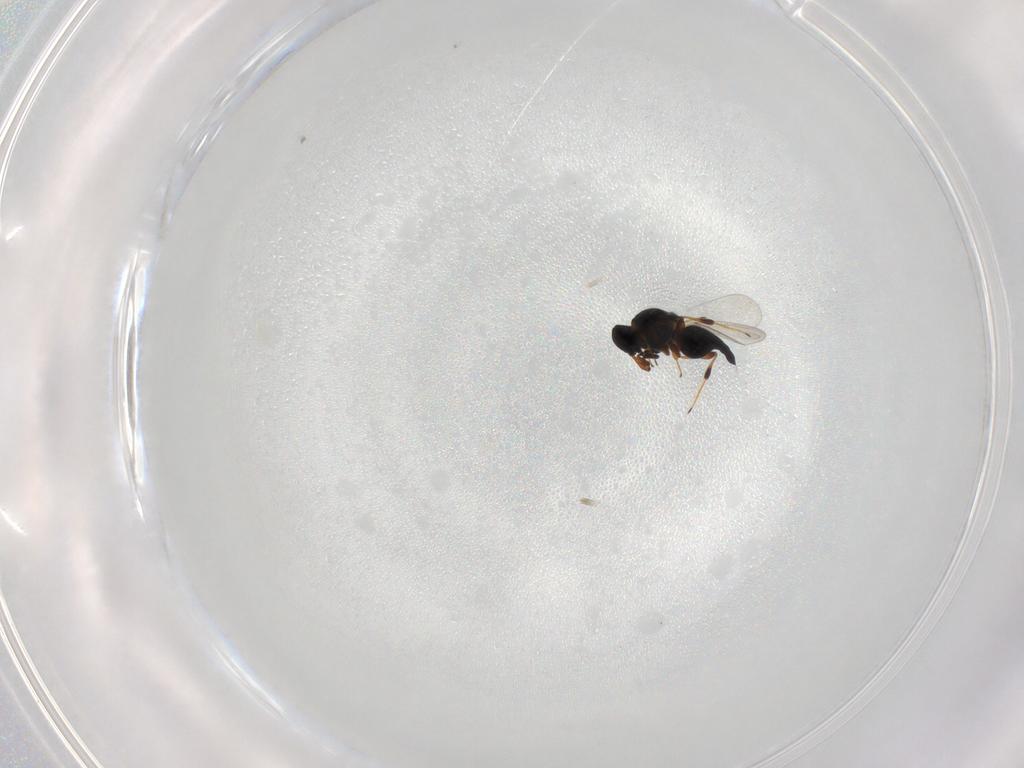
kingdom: Animalia
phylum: Arthropoda
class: Insecta
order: Hymenoptera
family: Platygastridae
